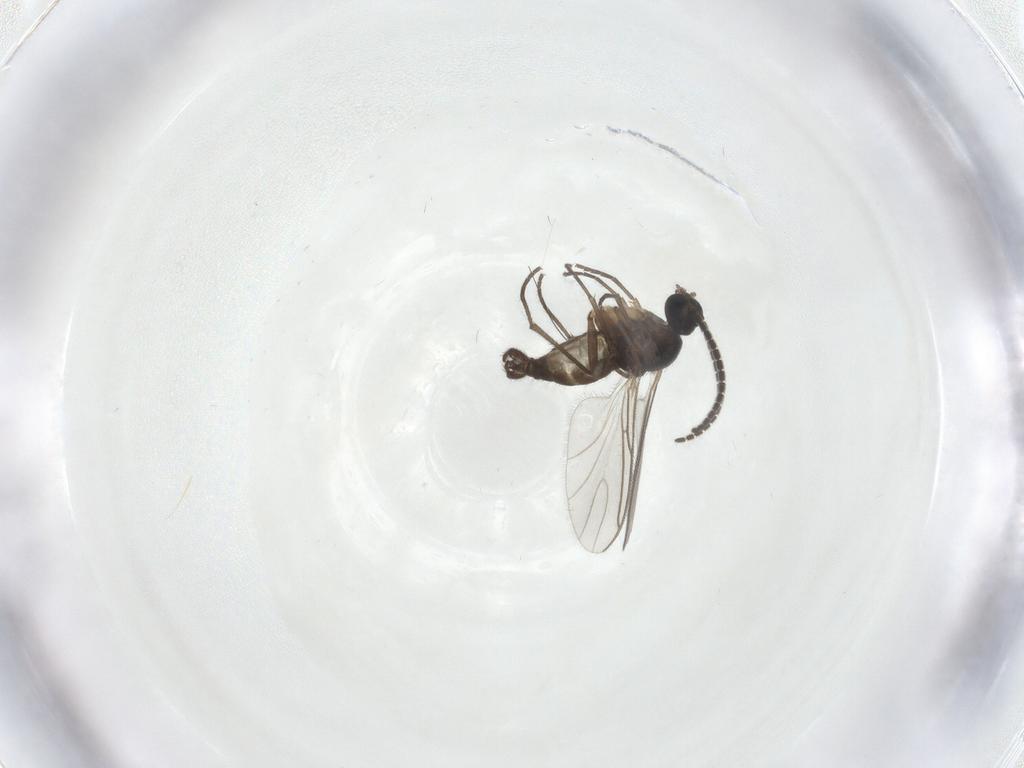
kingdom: Animalia
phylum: Arthropoda
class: Insecta
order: Diptera
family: Sciaridae
